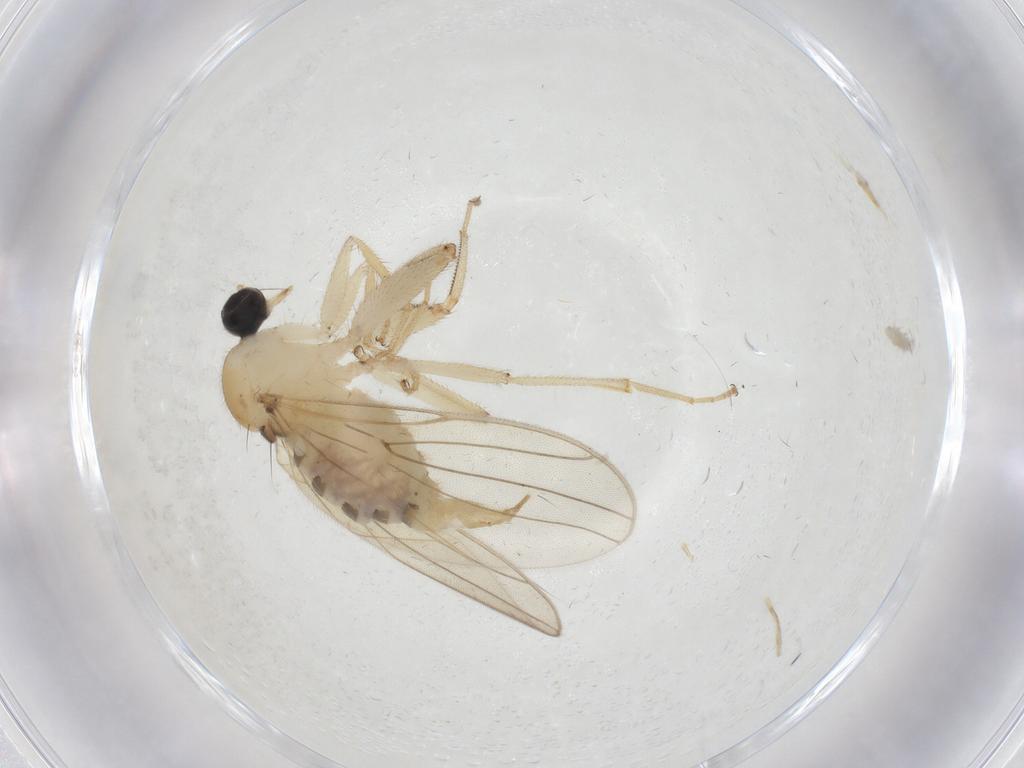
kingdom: Animalia
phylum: Arthropoda
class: Insecta
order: Diptera
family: Hybotidae
